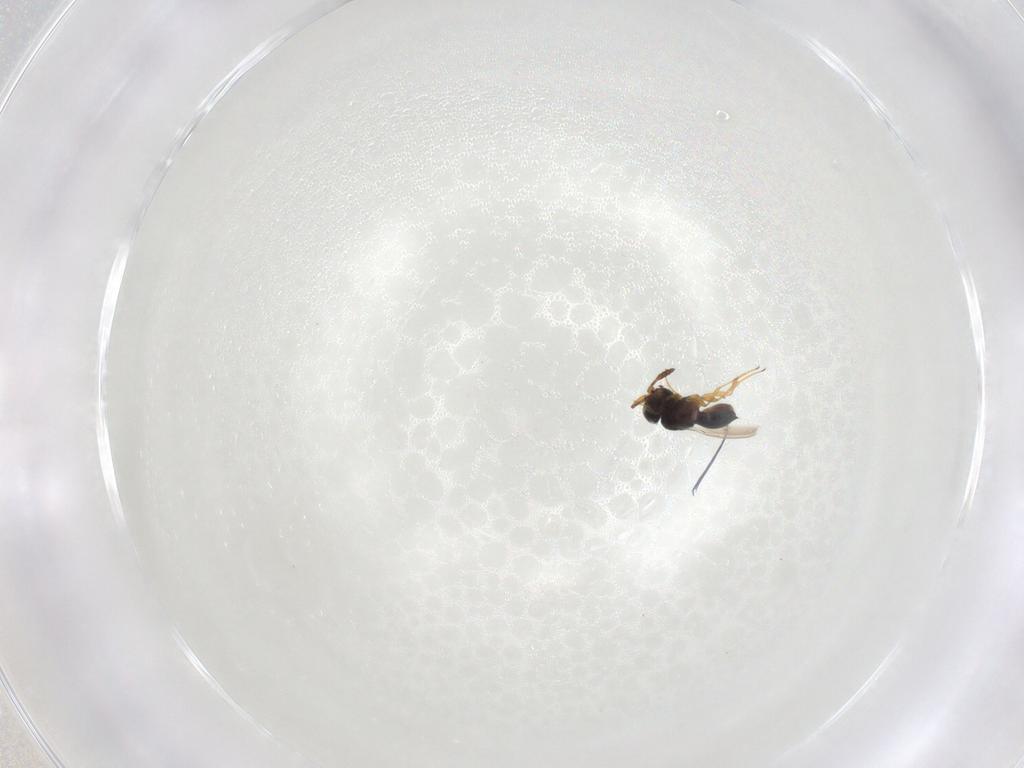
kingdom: Animalia
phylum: Arthropoda
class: Insecta
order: Hymenoptera
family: Scelionidae
